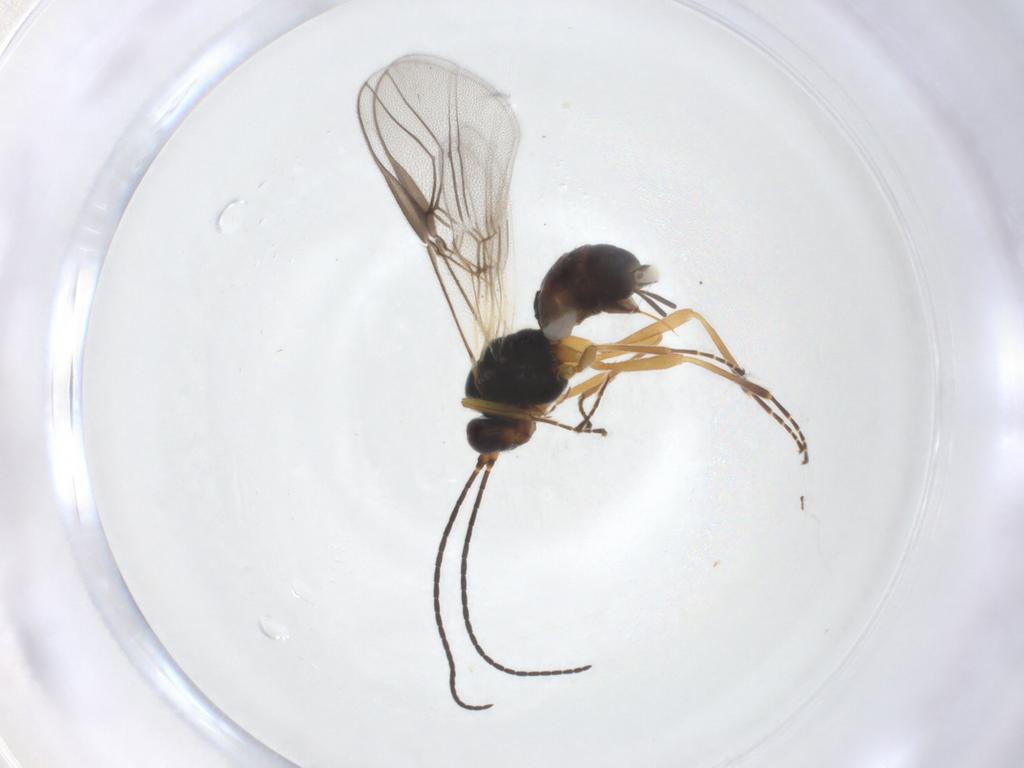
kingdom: Animalia
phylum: Arthropoda
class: Insecta
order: Hymenoptera
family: Braconidae
